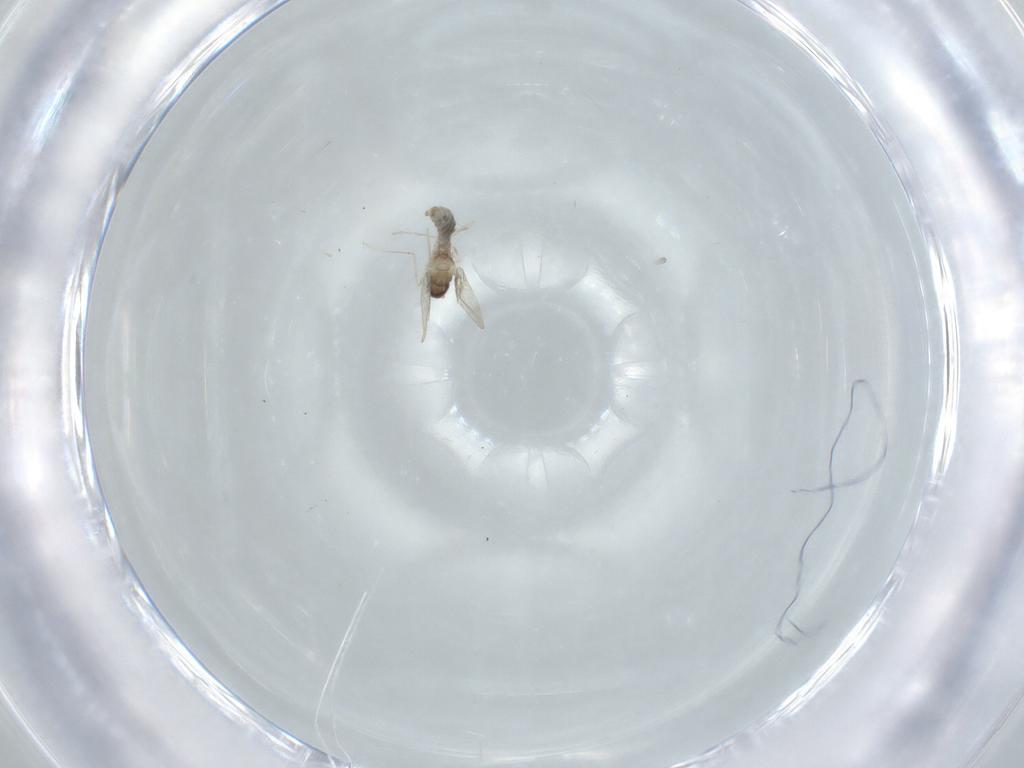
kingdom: Animalia
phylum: Arthropoda
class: Insecta
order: Diptera
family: Cecidomyiidae
